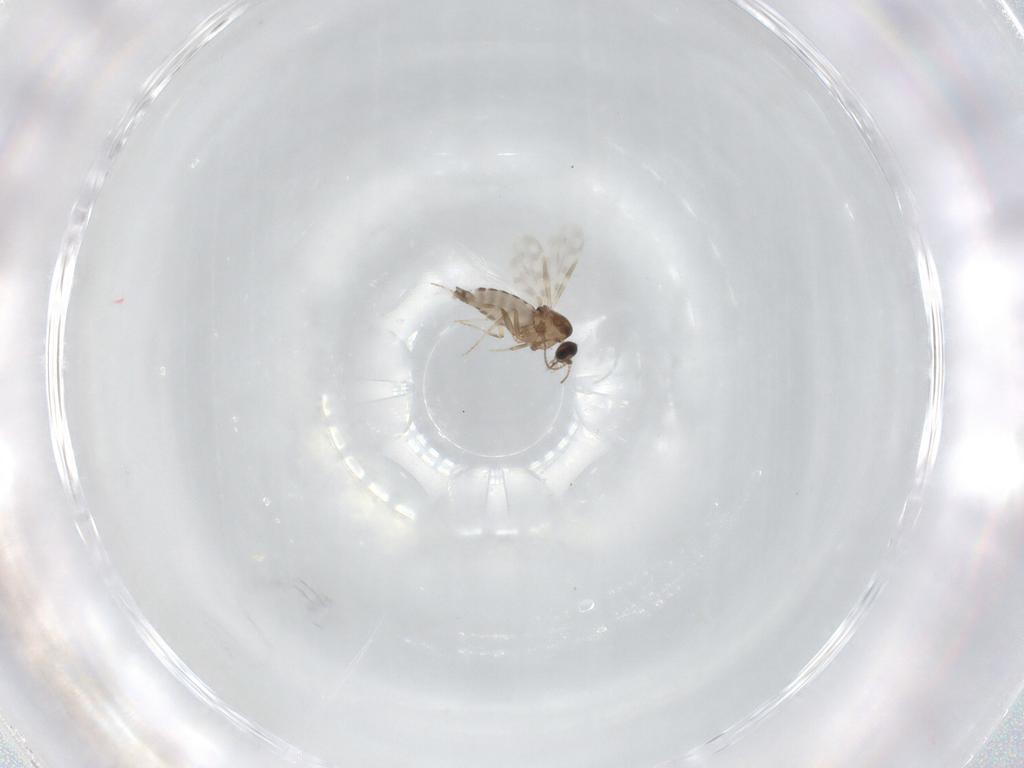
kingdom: Animalia
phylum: Arthropoda
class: Insecta
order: Diptera
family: Ceratopogonidae
